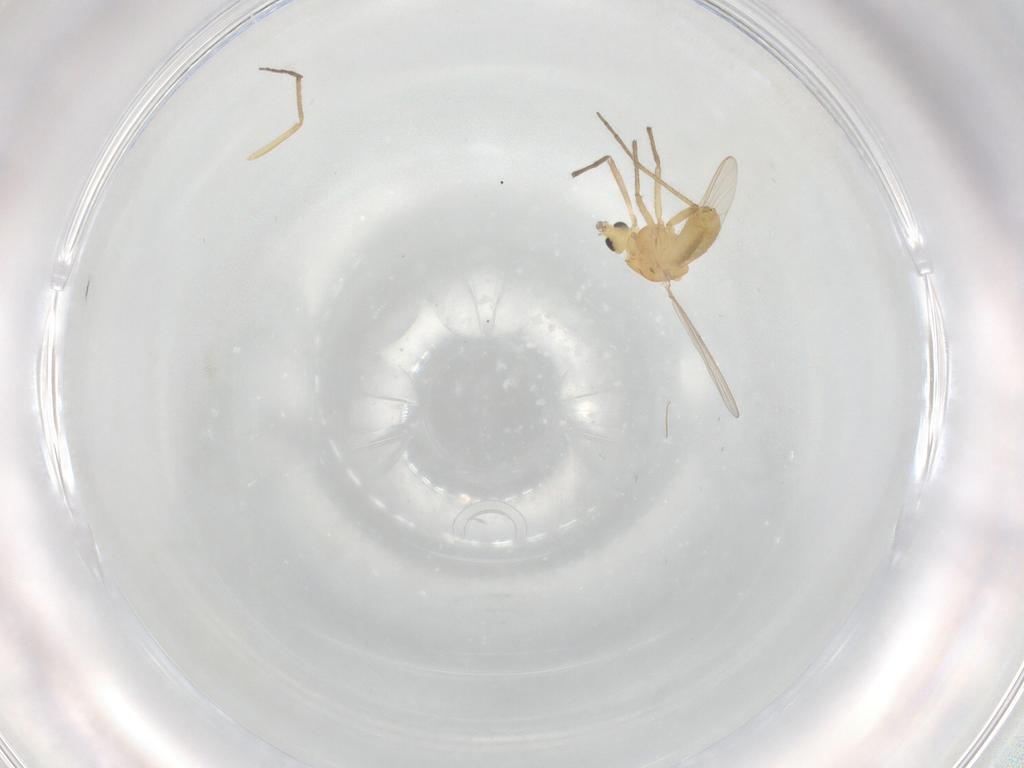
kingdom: Animalia
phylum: Arthropoda
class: Insecta
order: Diptera
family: Chironomidae
